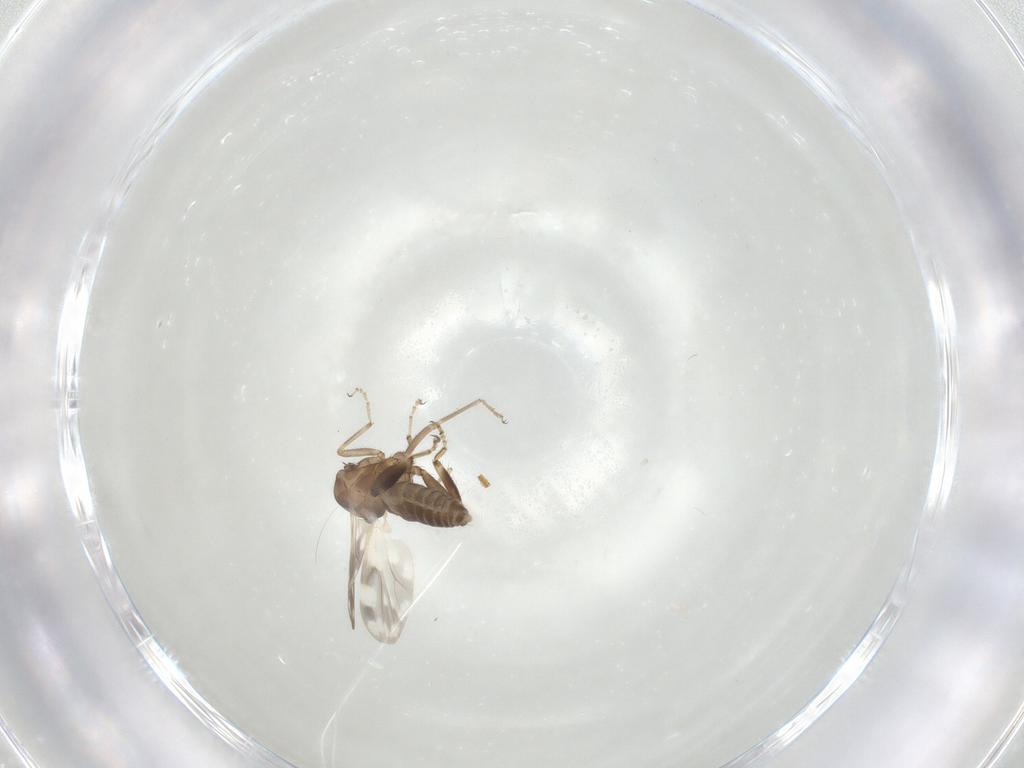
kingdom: Animalia
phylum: Arthropoda
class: Insecta
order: Diptera
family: Ceratopogonidae
